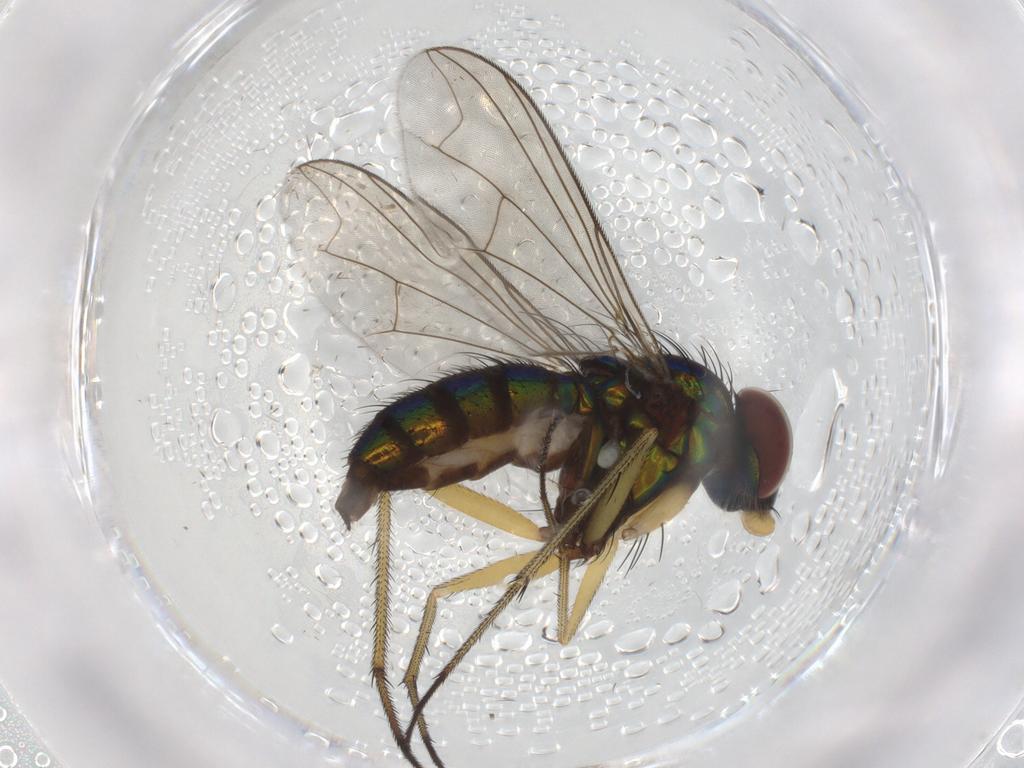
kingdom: Animalia
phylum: Arthropoda
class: Insecta
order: Diptera
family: Dolichopodidae
